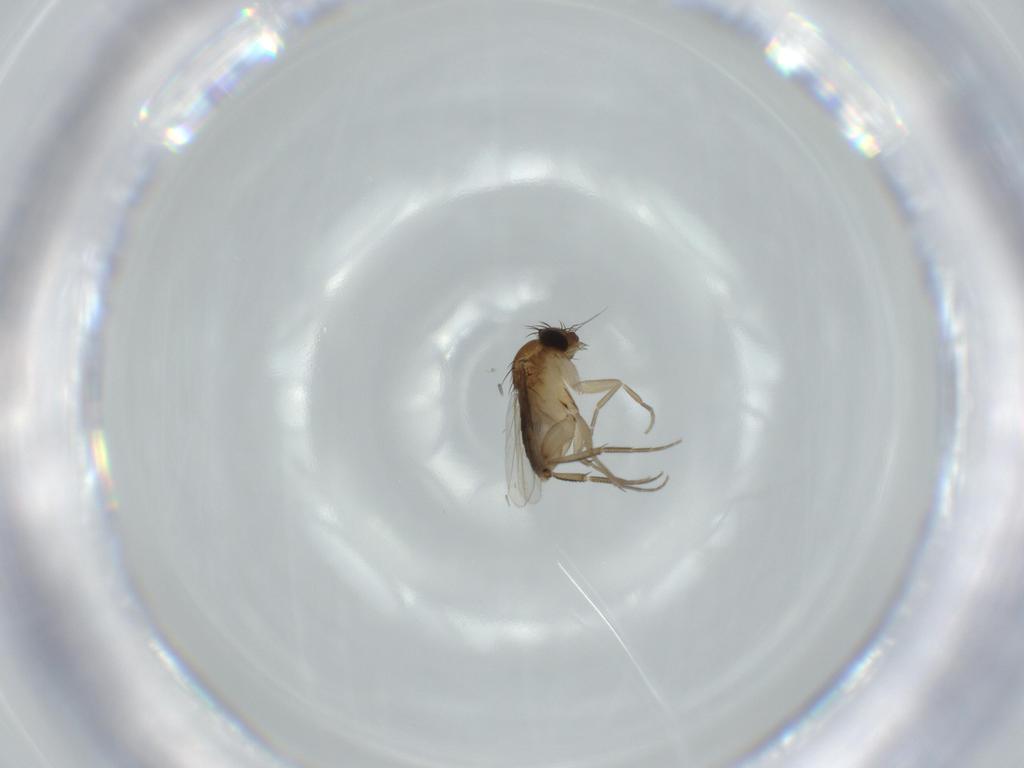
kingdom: Animalia
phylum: Arthropoda
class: Insecta
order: Diptera
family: Cecidomyiidae
